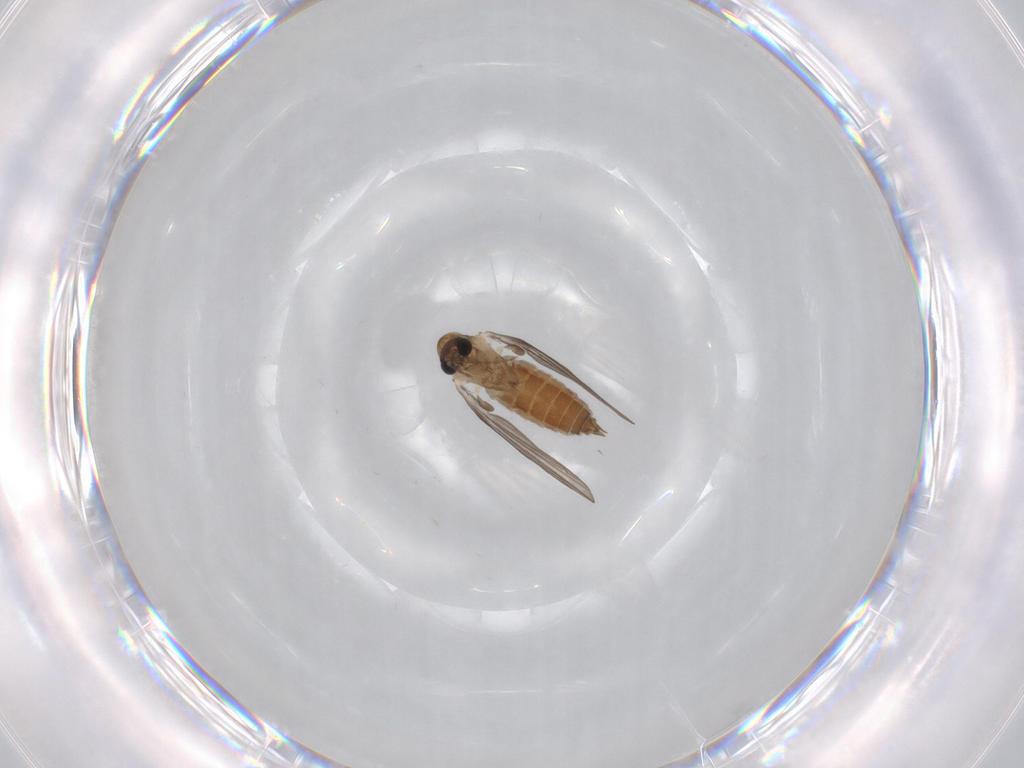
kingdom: Animalia
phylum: Arthropoda
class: Insecta
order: Diptera
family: Sciaridae
